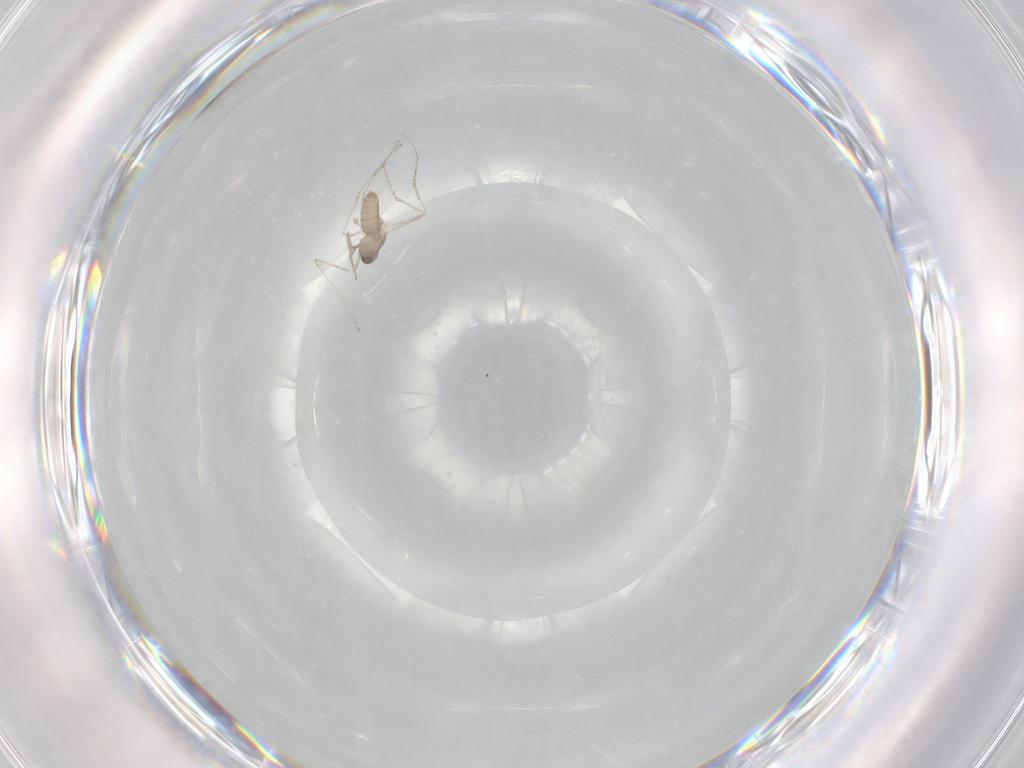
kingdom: Animalia
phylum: Arthropoda
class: Insecta
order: Diptera
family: Cecidomyiidae
